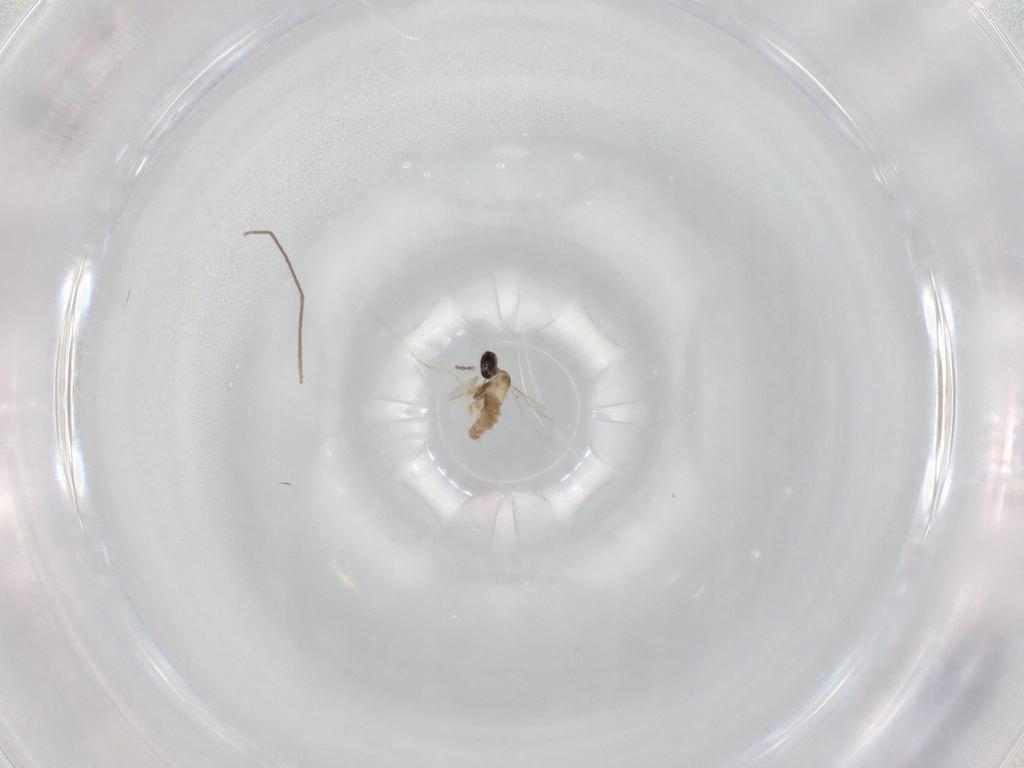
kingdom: Animalia
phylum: Arthropoda
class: Insecta
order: Diptera
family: Cecidomyiidae
